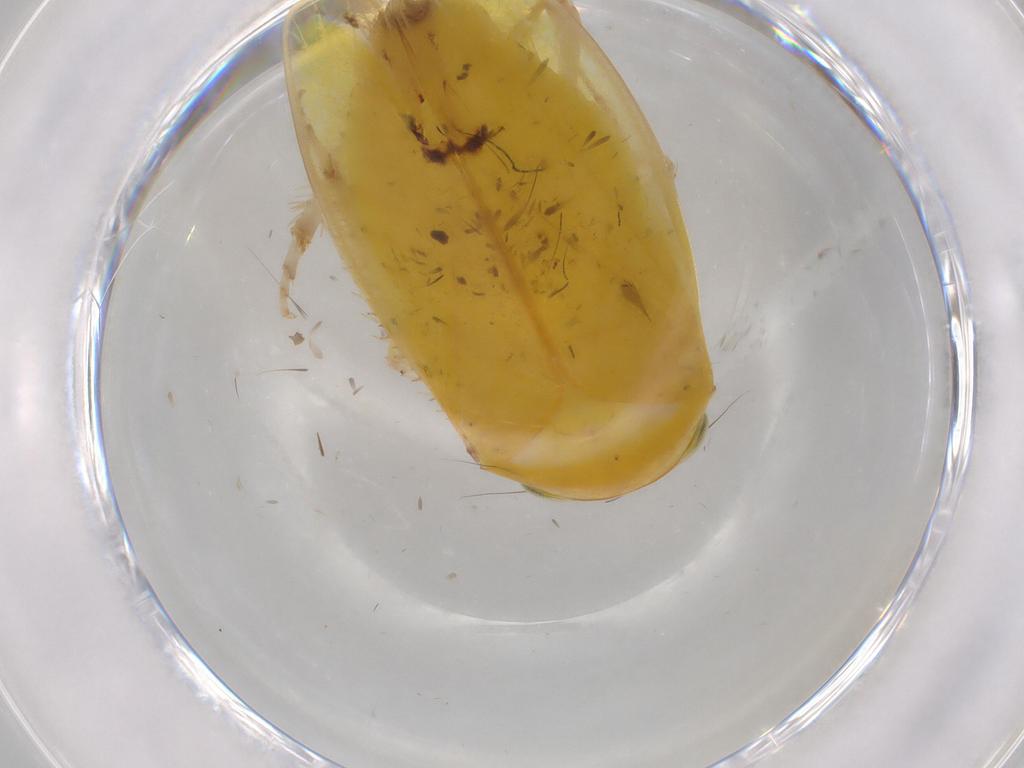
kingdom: Animalia
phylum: Arthropoda
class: Insecta
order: Hemiptera
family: Cicadellidae
